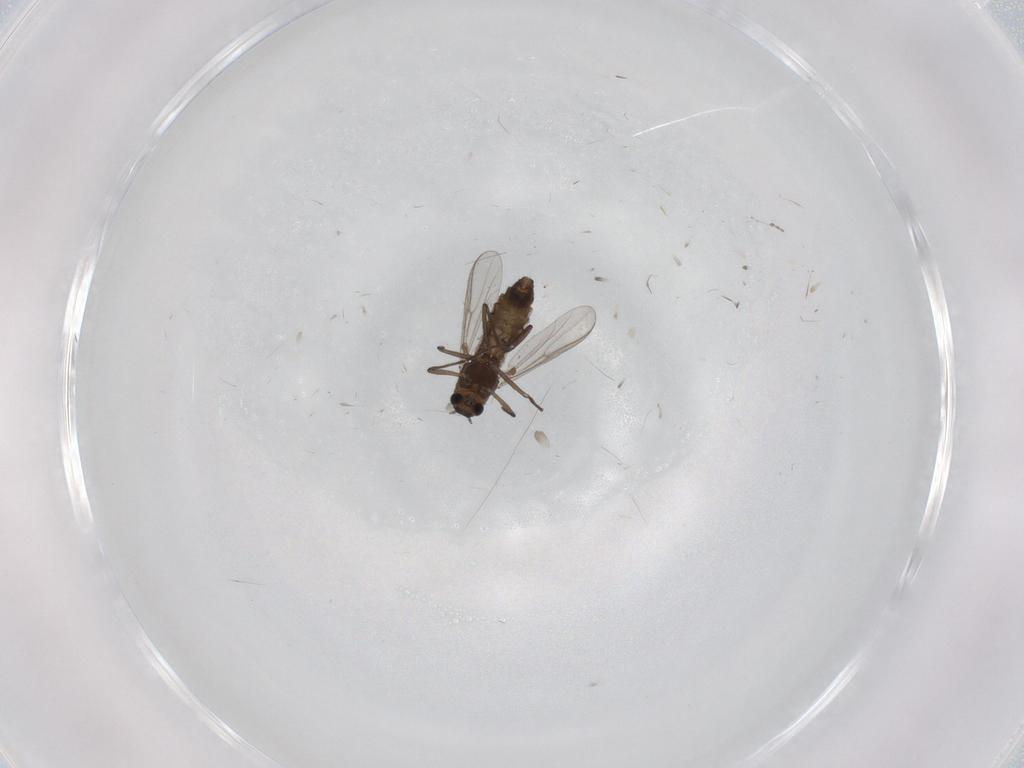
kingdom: Animalia
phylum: Arthropoda
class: Insecta
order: Diptera
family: Chironomidae
